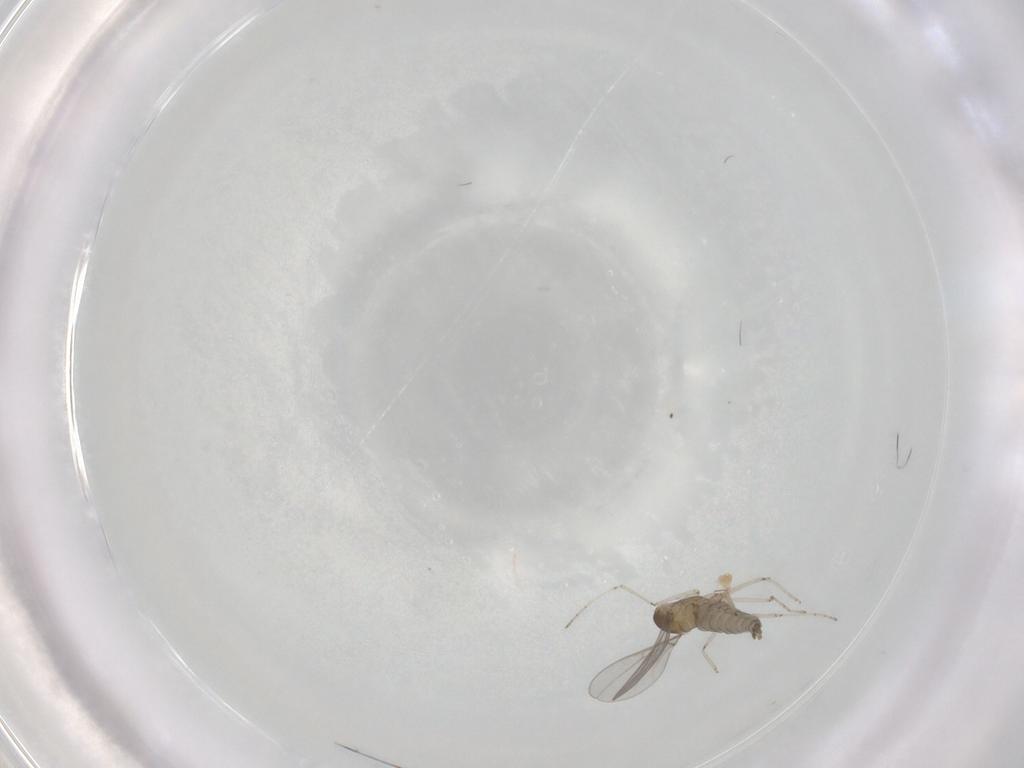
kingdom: Animalia
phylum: Arthropoda
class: Insecta
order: Diptera
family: Cecidomyiidae
